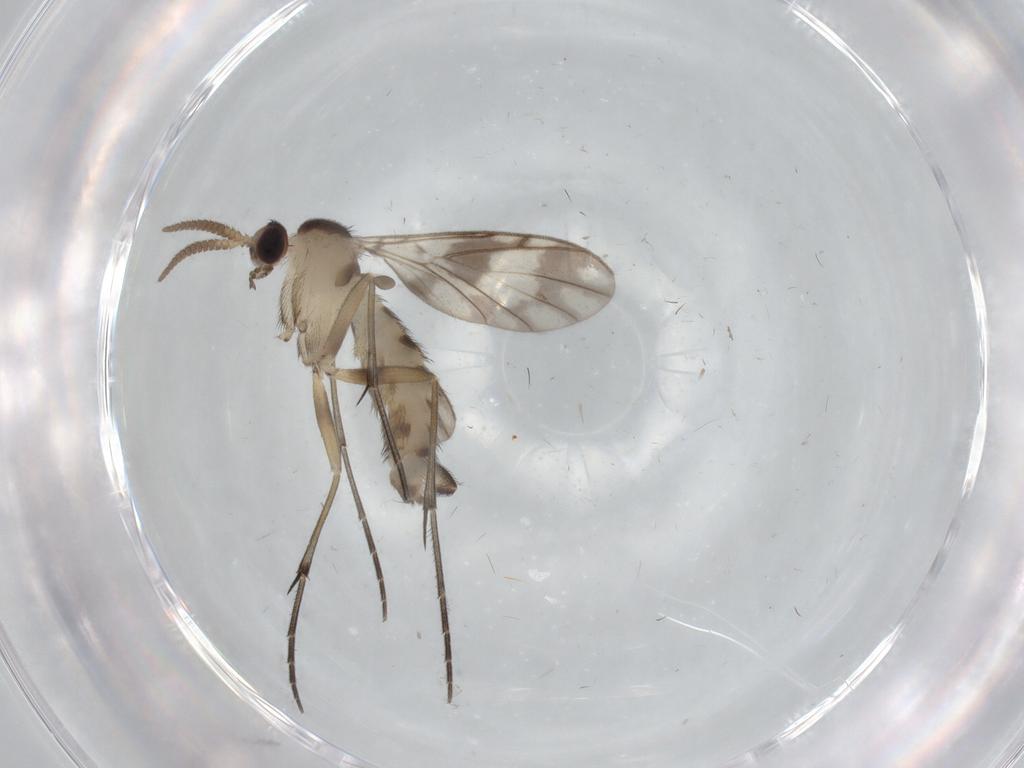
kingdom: Animalia
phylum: Arthropoda
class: Insecta
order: Diptera
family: Keroplatidae
